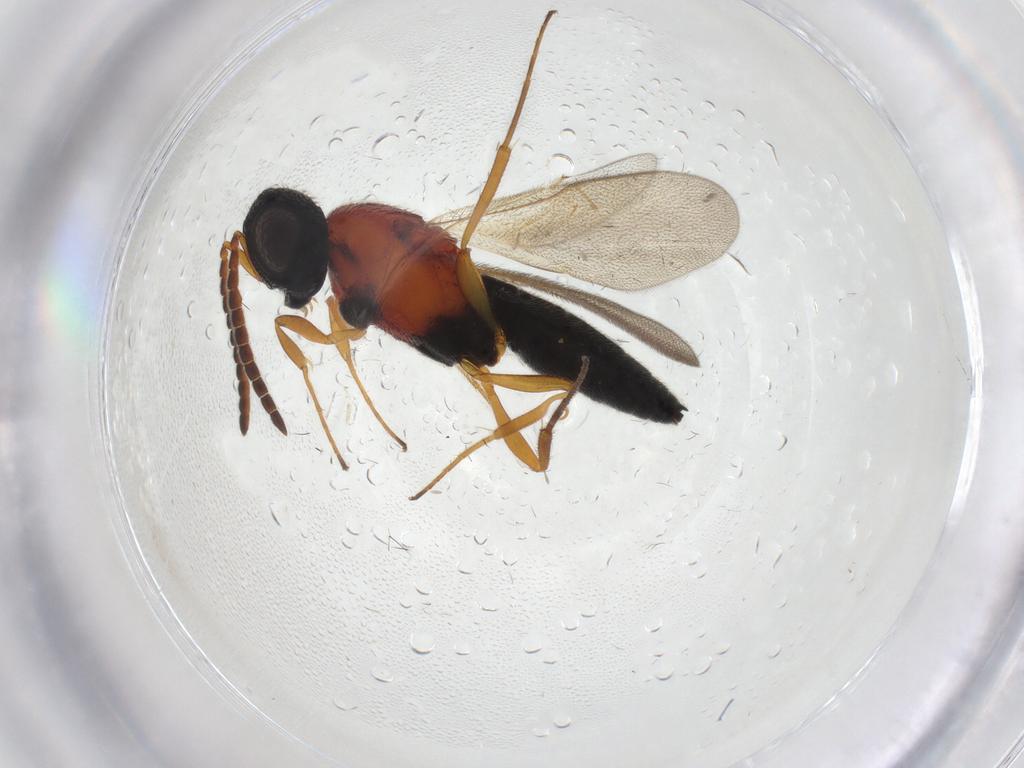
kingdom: Animalia
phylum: Arthropoda
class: Insecta
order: Hymenoptera
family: Scelionidae
